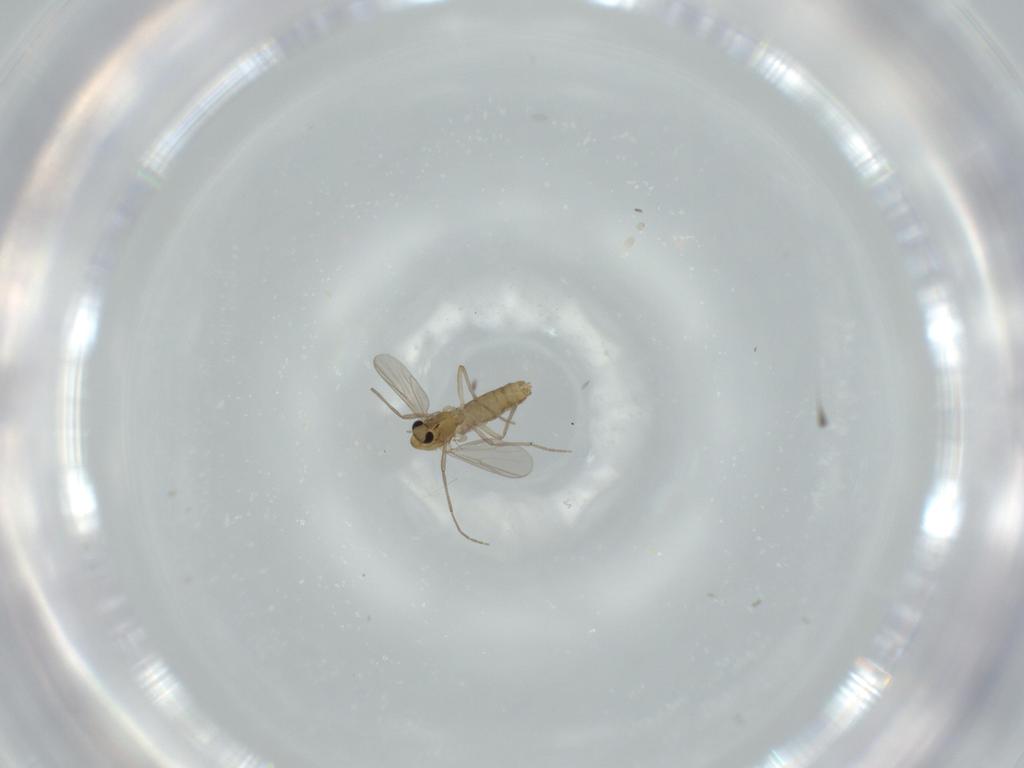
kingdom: Animalia
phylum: Arthropoda
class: Insecta
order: Diptera
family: Chironomidae
